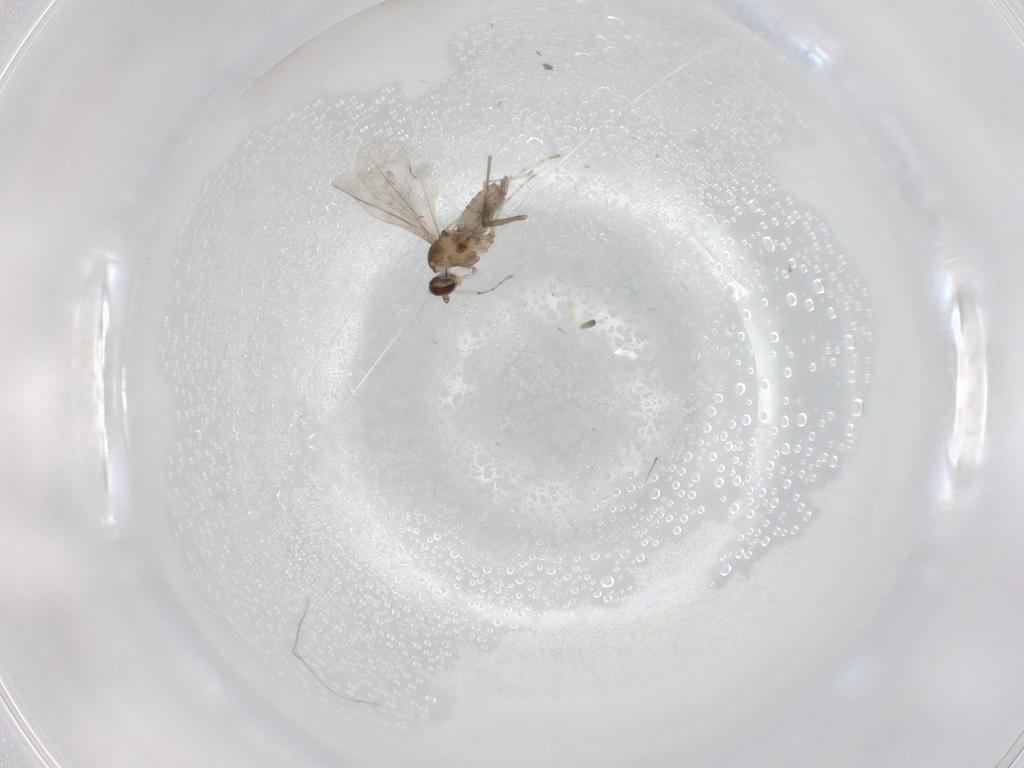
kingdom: Animalia
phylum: Arthropoda
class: Insecta
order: Diptera
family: Cecidomyiidae
